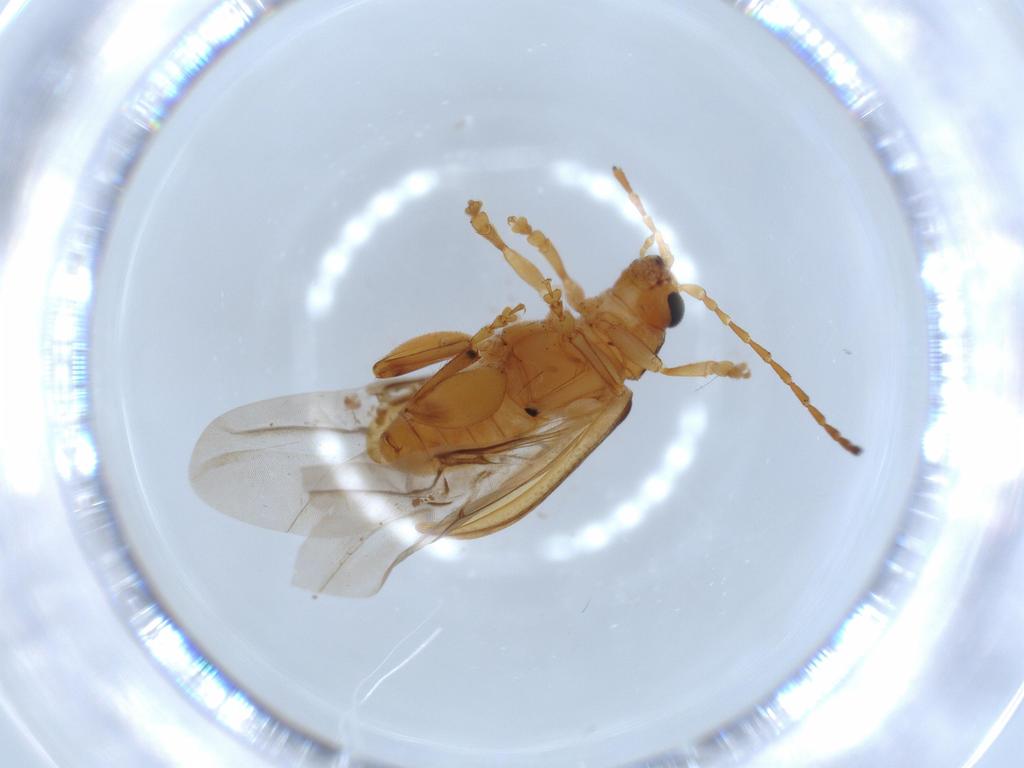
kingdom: Animalia
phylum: Arthropoda
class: Insecta
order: Coleoptera
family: Chrysomelidae
